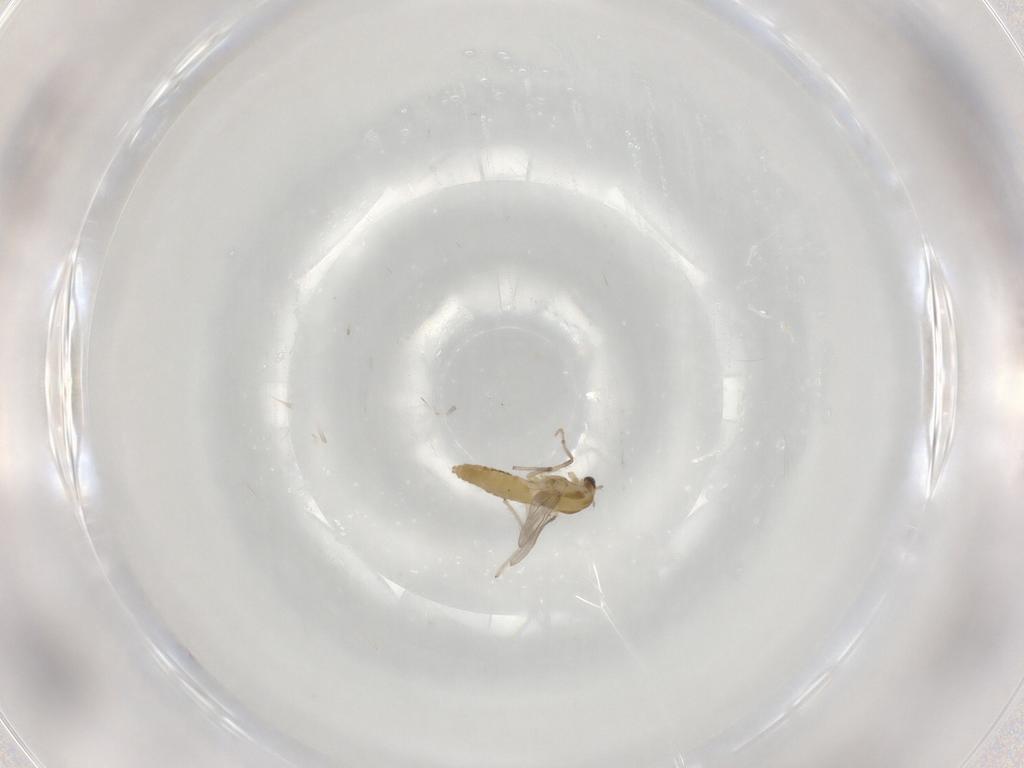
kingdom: Animalia
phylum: Arthropoda
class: Insecta
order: Diptera
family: Chironomidae
